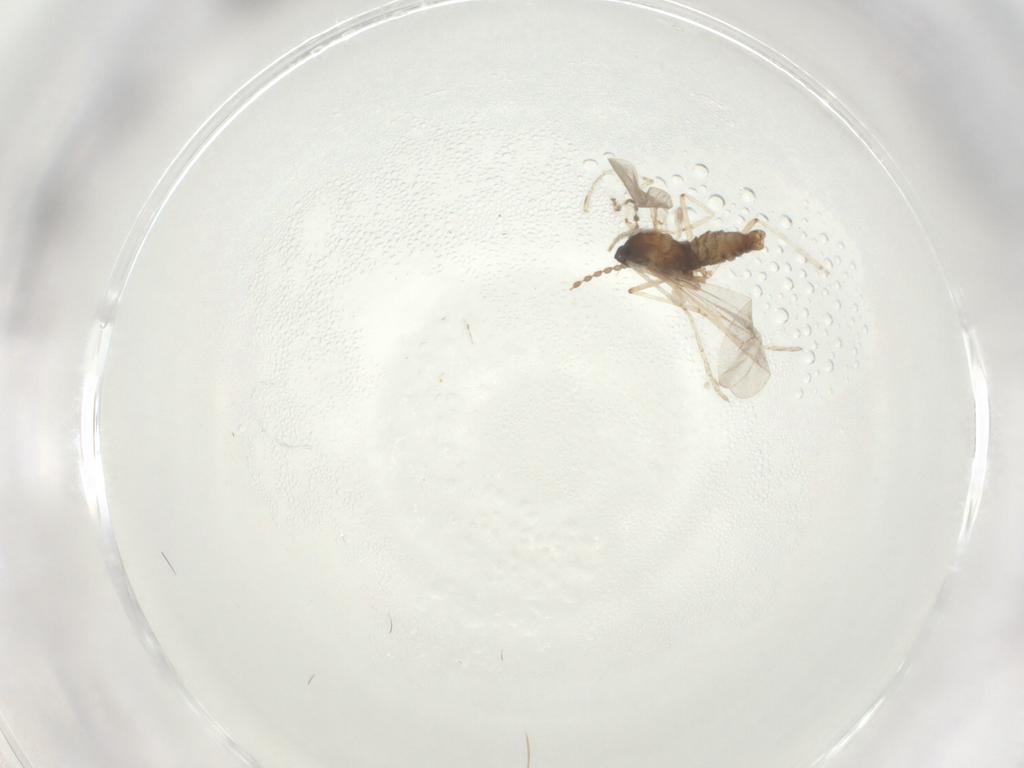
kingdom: Animalia
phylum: Arthropoda
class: Insecta
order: Diptera
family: Cecidomyiidae
